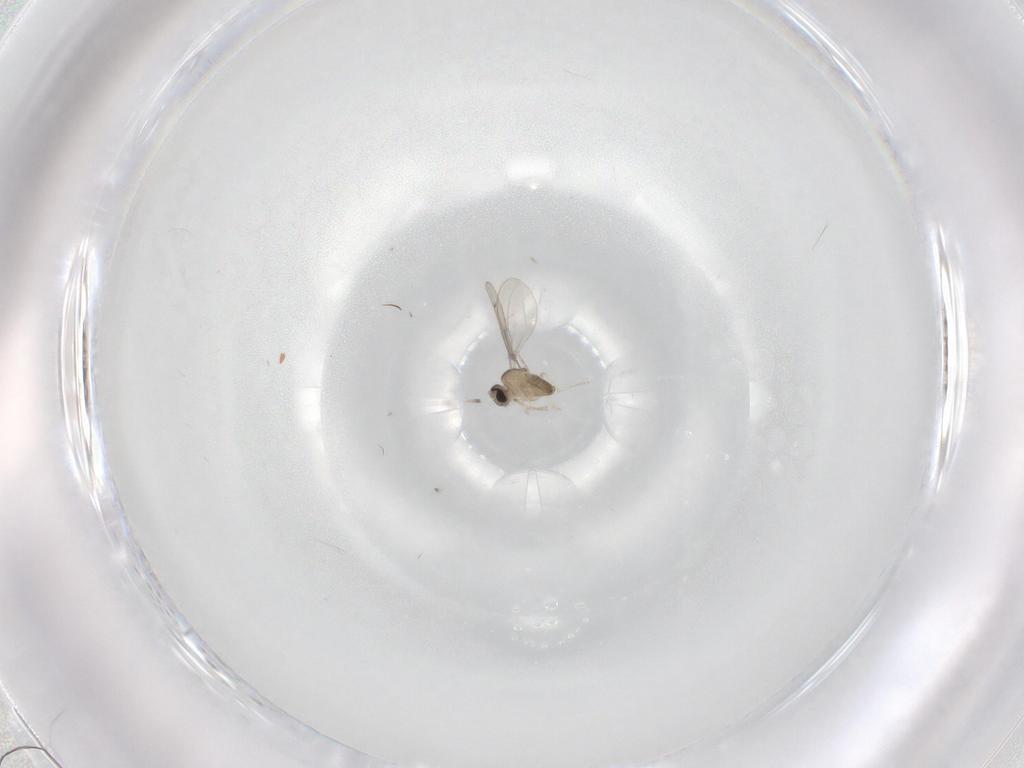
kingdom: Animalia
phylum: Arthropoda
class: Insecta
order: Diptera
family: Cecidomyiidae
